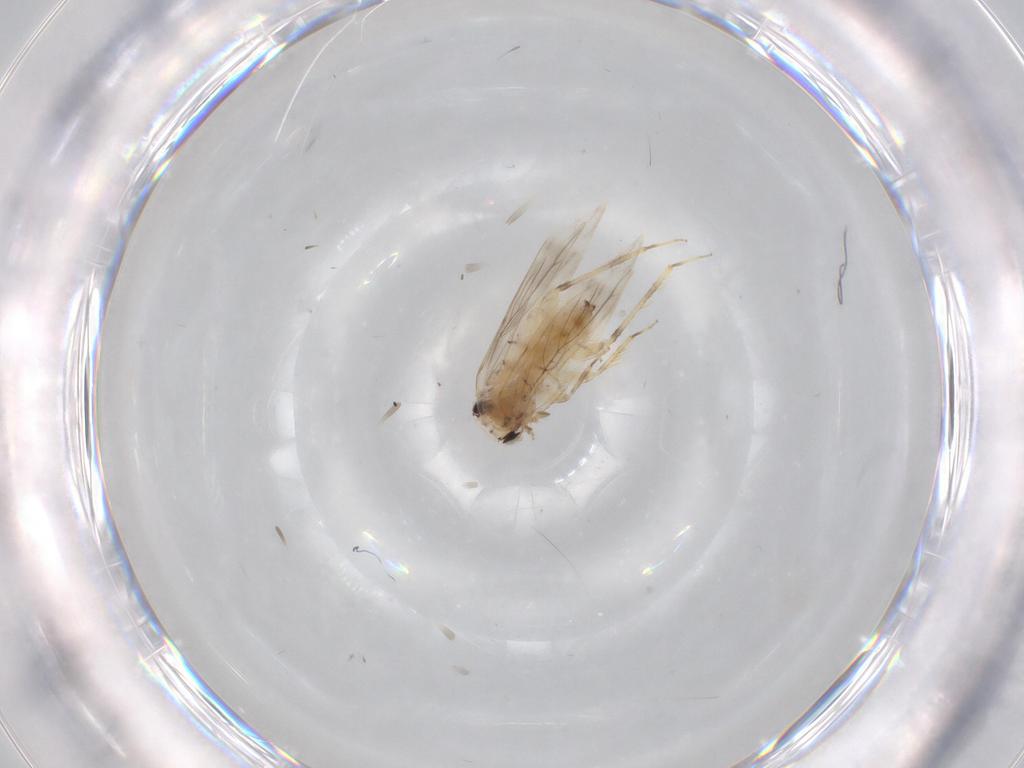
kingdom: Animalia
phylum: Arthropoda
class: Insecta
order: Psocodea
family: Lepidopsocidae
